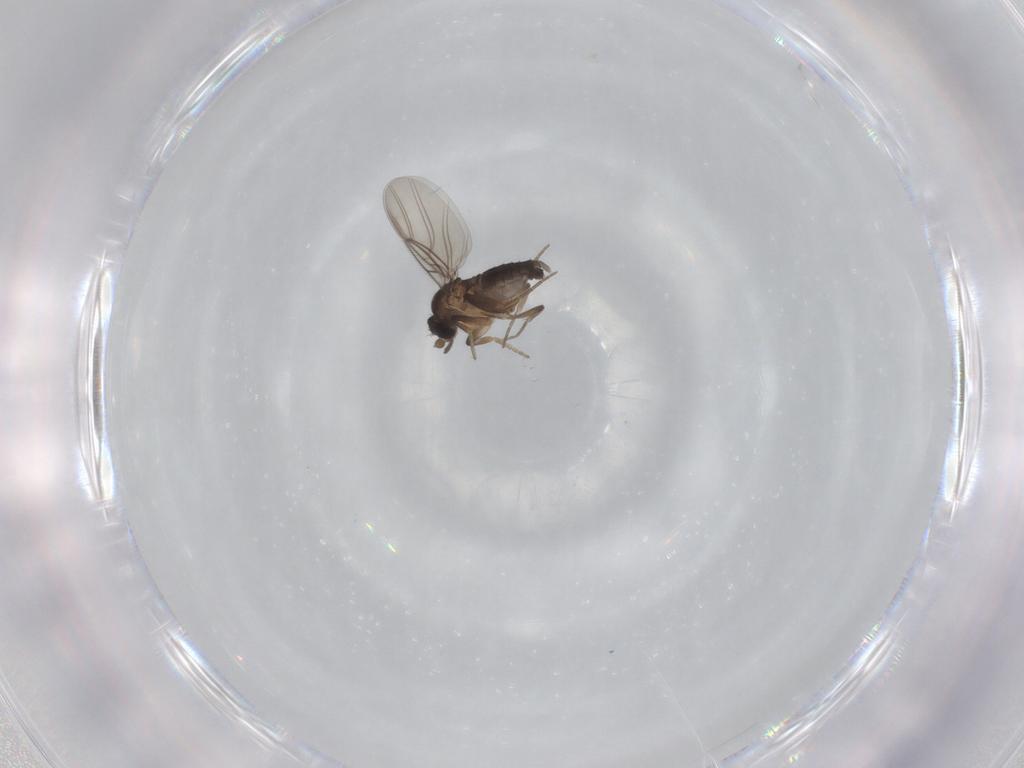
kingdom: Animalia
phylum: Arthropoda
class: Insecta
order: Diptera
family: Phoridae
